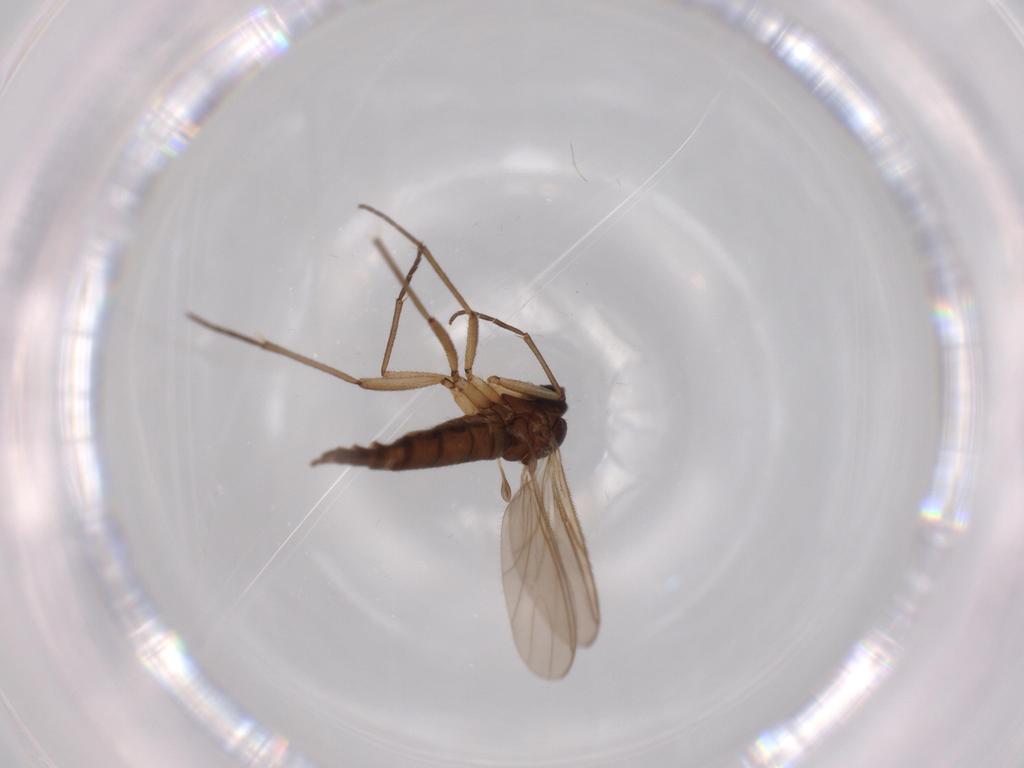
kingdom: Animalia
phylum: Arthropoda
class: Insecta
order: Diptera
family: Sciaridae
